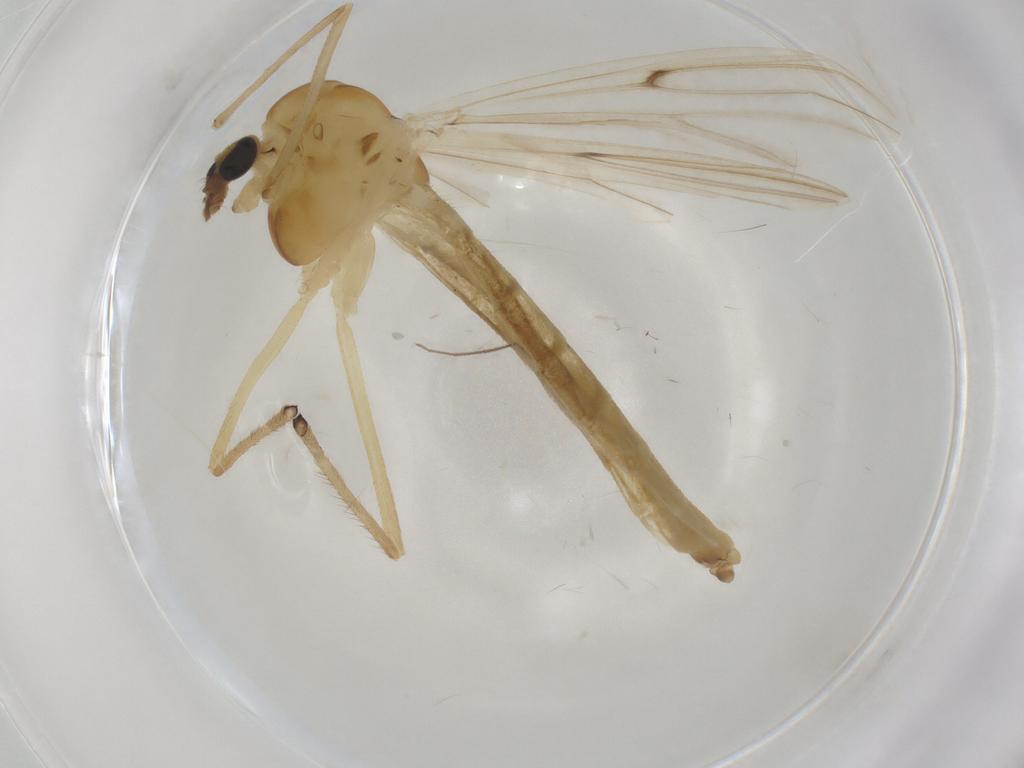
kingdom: Animalia
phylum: Arthropoda
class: Insecta
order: Diptera
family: Cecidomyiidae
